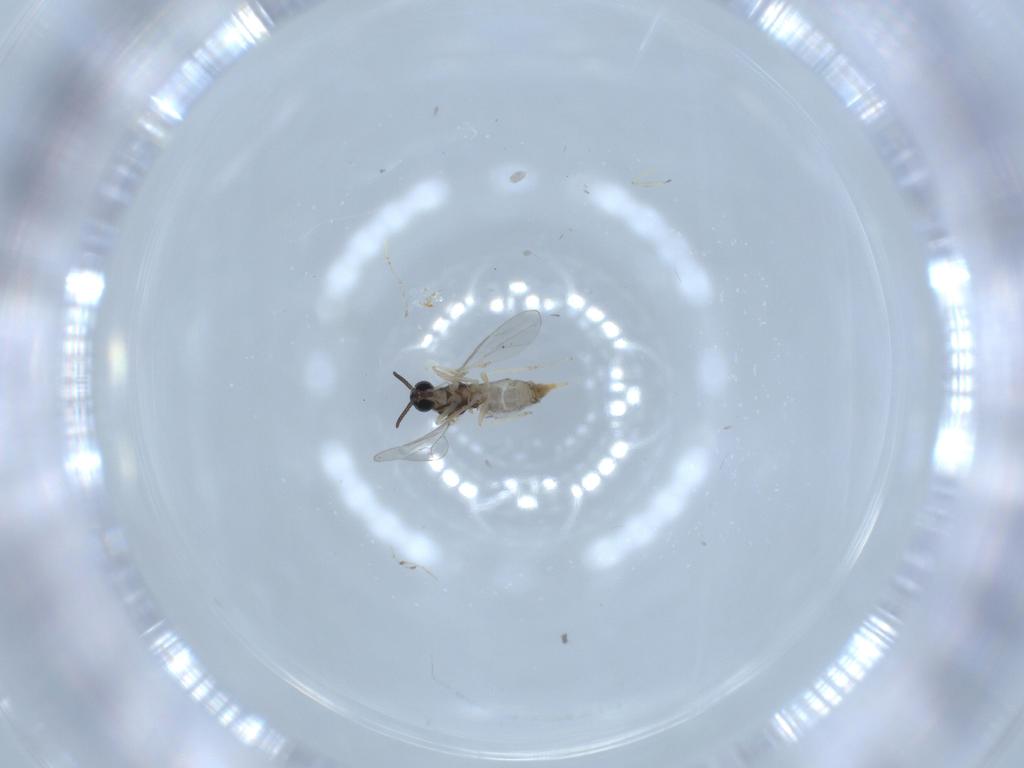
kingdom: Animalia
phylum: Arthropoda
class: Insecta
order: Diptera
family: Cecidomyiidae
